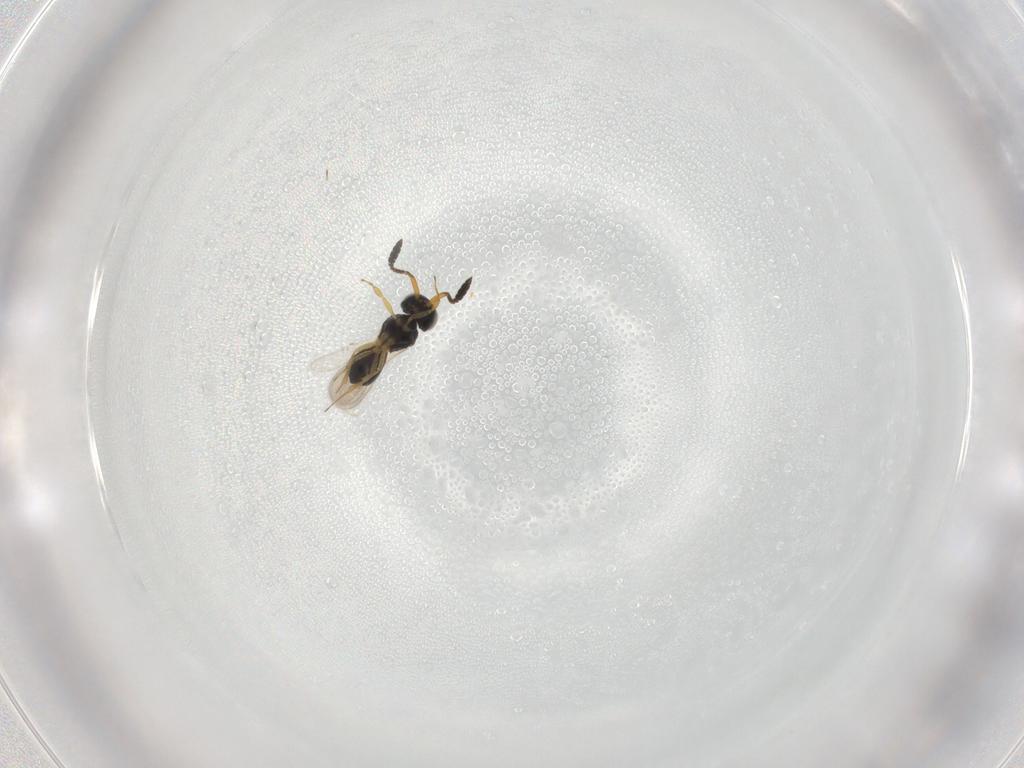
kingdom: Animalia
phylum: Arthropoda
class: Insecta
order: Hymenoptera
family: Scelionidae
